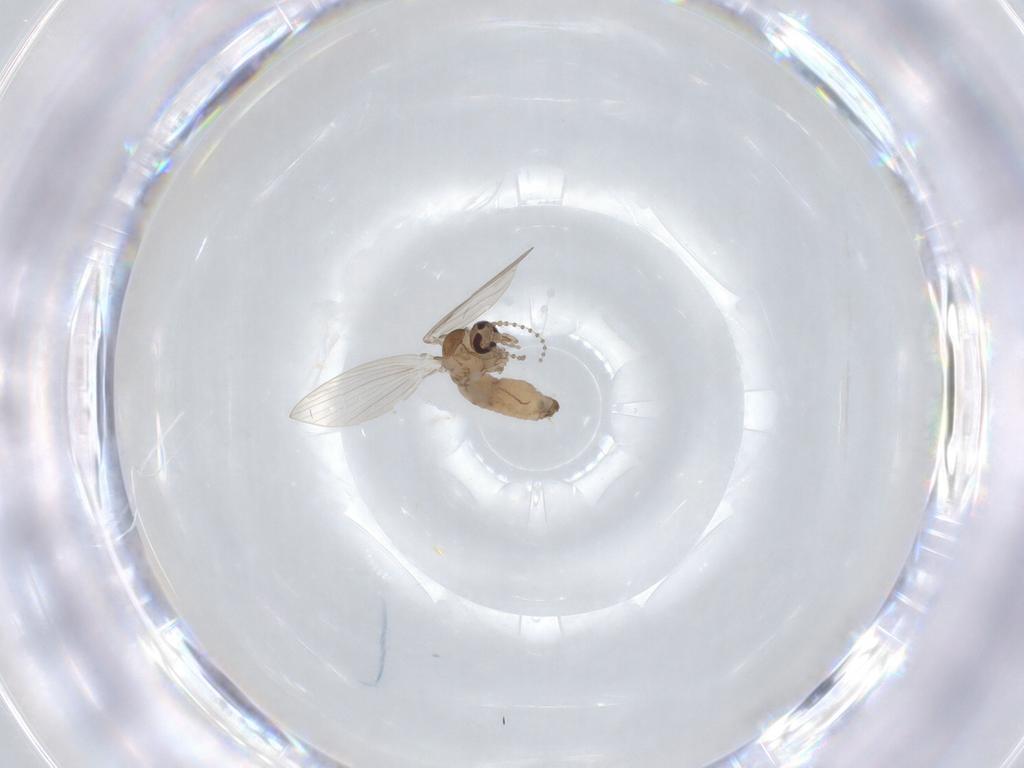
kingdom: Animalia
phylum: Arthropoda
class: Insecta
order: Diptera
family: Psychodidae
